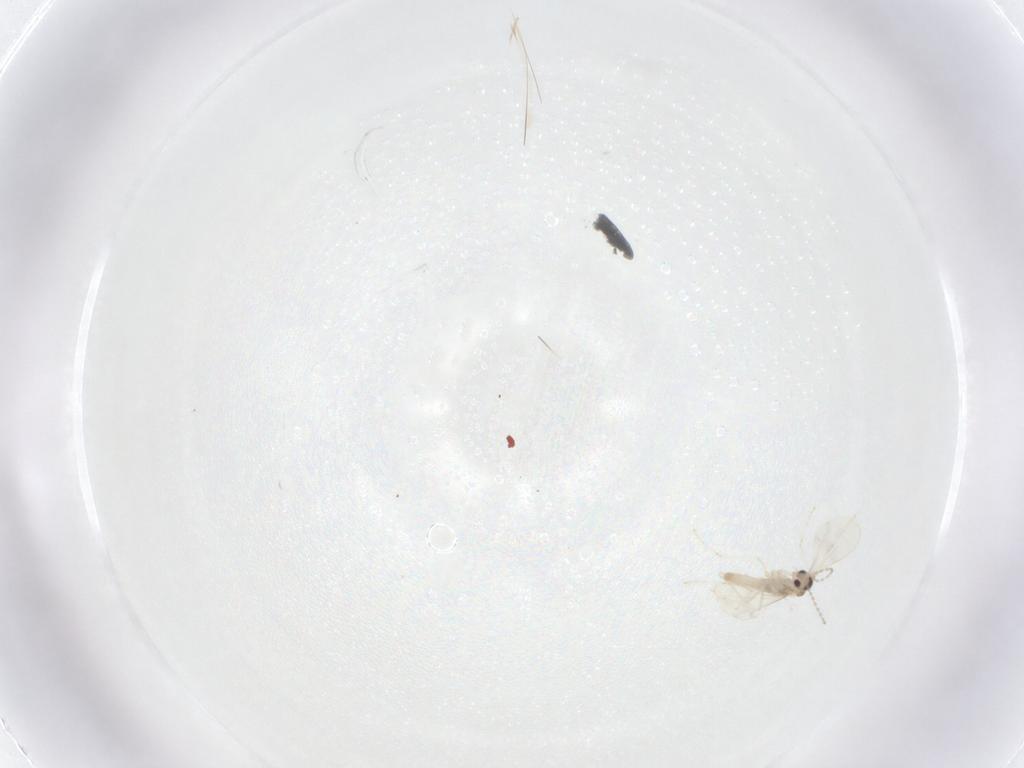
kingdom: Animalia
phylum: Arthropoda
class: Insecta
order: Diptera
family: Cecidomyiidae
